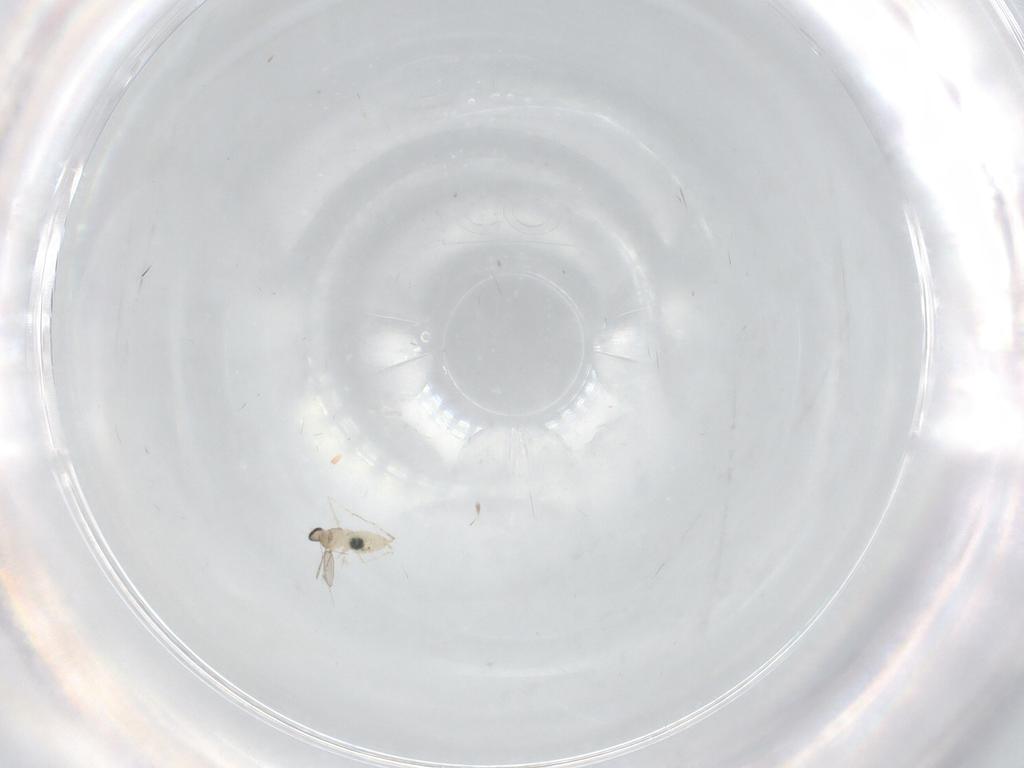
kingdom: Animalia
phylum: Arthropoda
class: Insecta
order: Diptera
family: Cecidomyiidae
